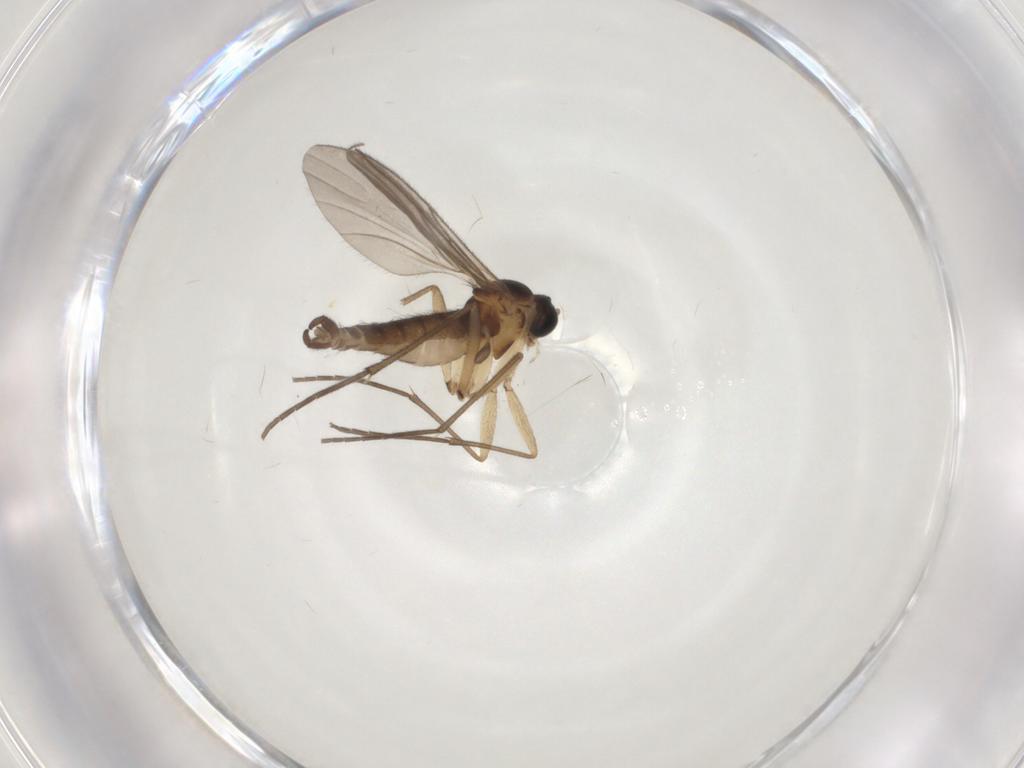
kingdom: Animalia
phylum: Arthropoda
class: Insecta
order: Diptera
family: Sciaridae
